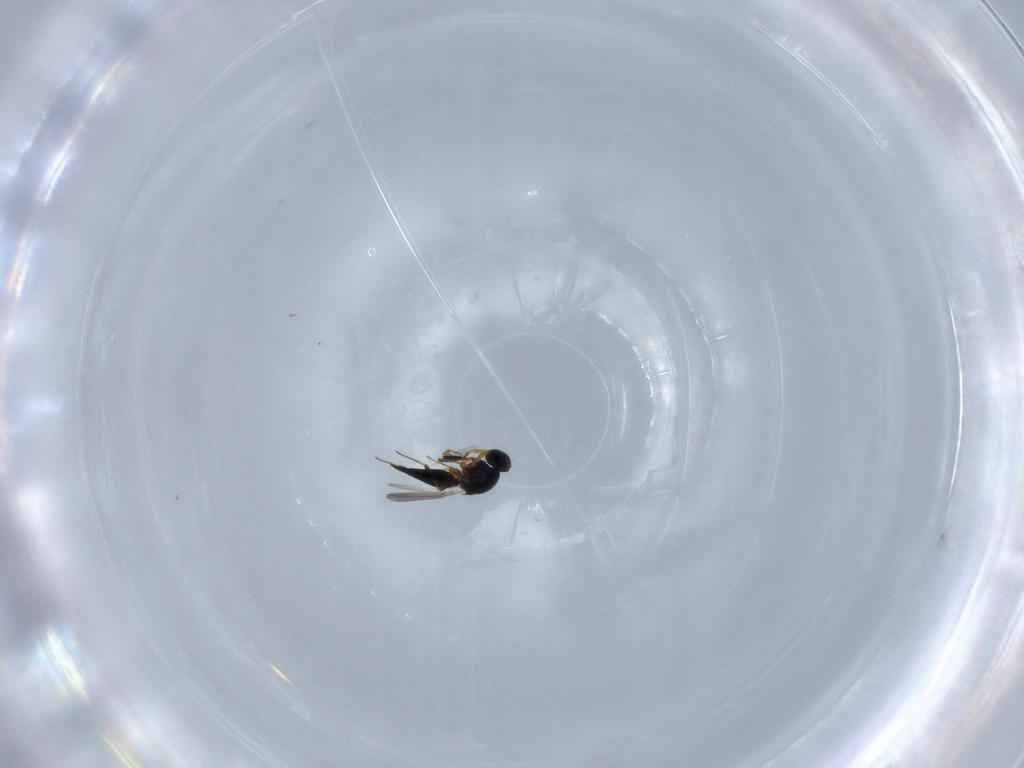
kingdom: Animalia
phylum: Arthropoda
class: Insecta
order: Hymenoptera
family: Platygastridae
